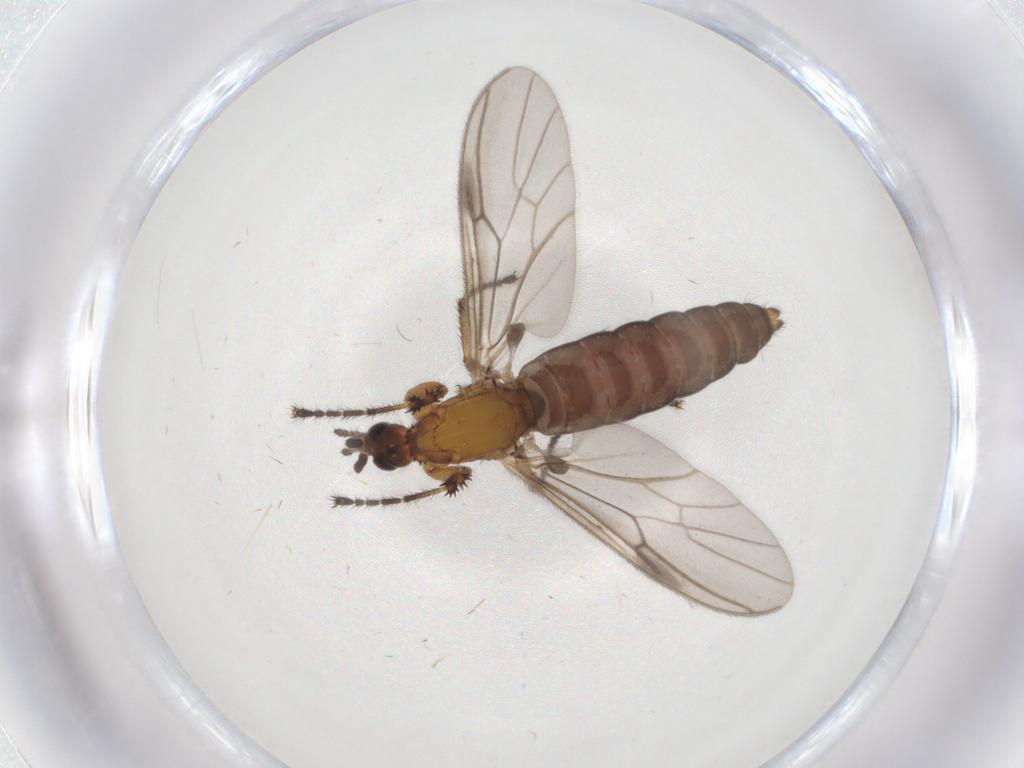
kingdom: Animalia
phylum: Arthropoda
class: Insecta
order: Diptera
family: Bibionidae
